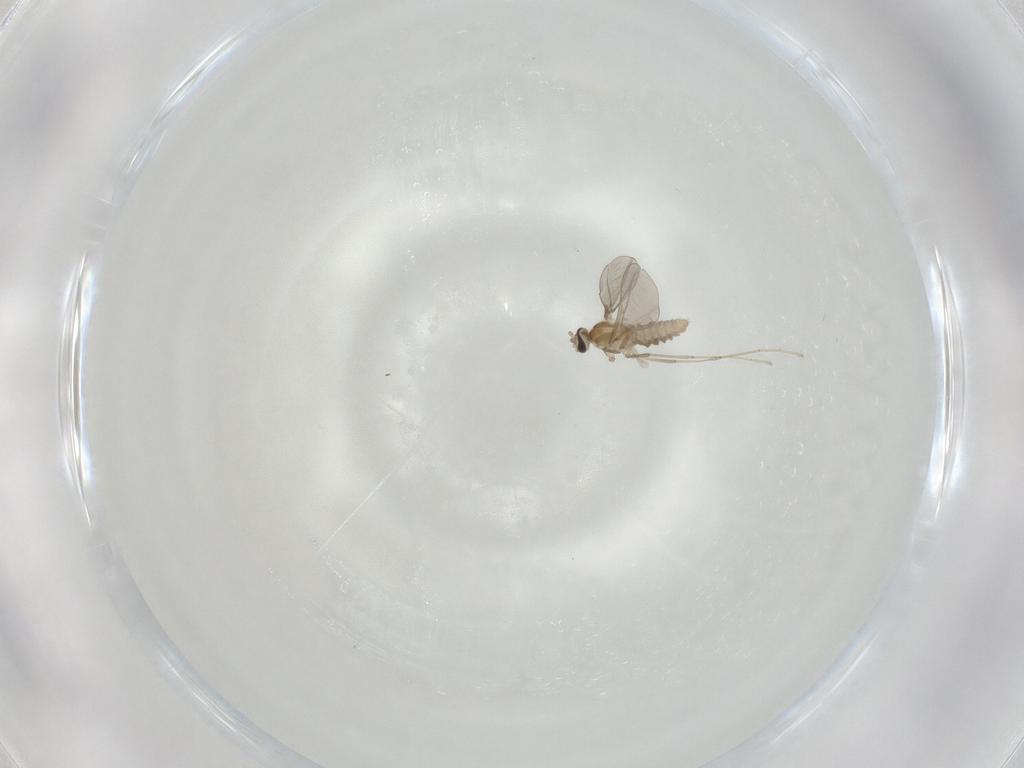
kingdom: Animalia
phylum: Arthropoda
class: Insecta
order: Diptera
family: Cecidomyiidae
